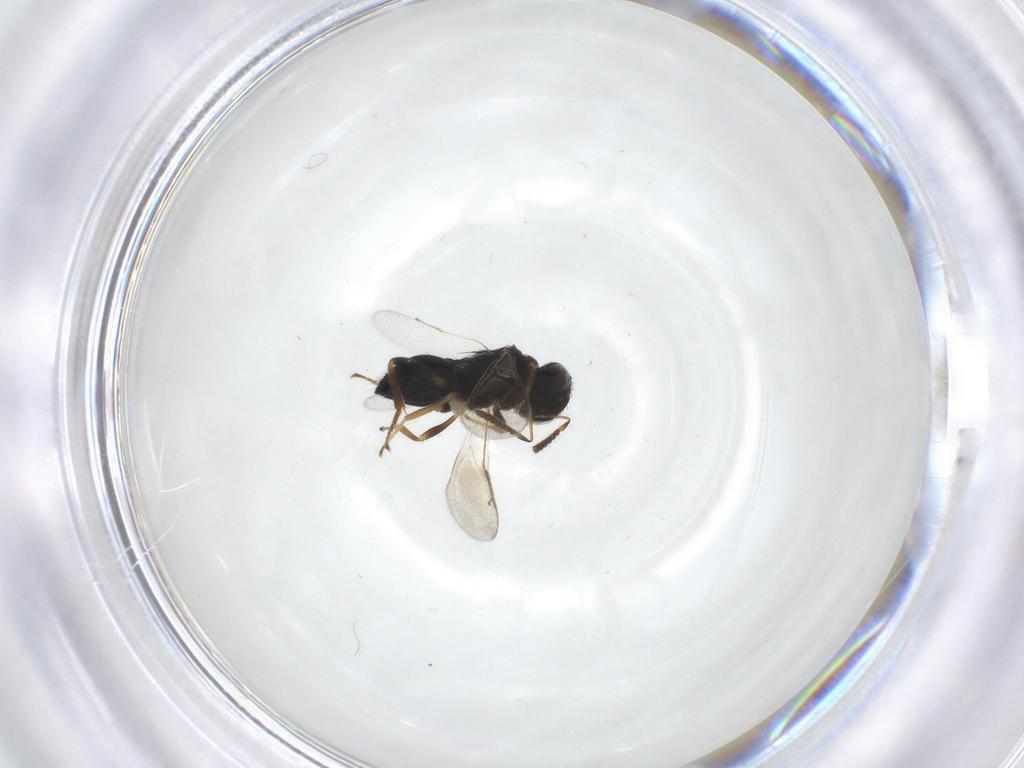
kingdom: Animalia
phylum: Arthropoda
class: Insecta
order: Hymenoptera
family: Pteromalidae
